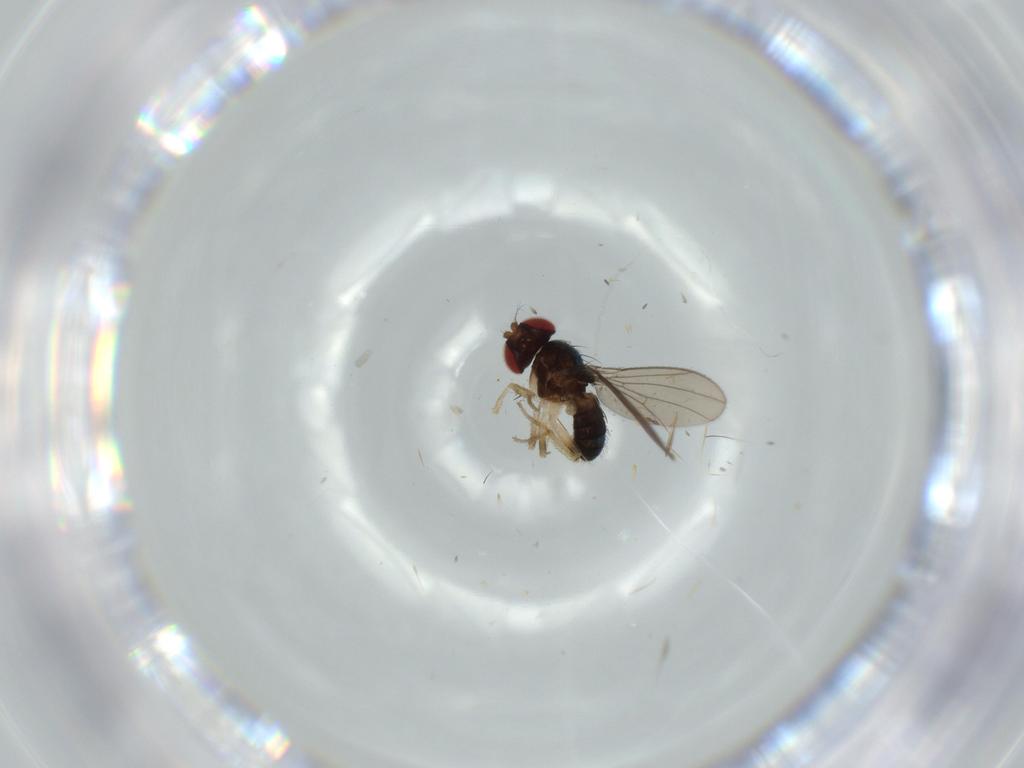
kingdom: Animalia
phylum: Arthropoda
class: Insecta
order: Diptera
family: Drosophilidae
